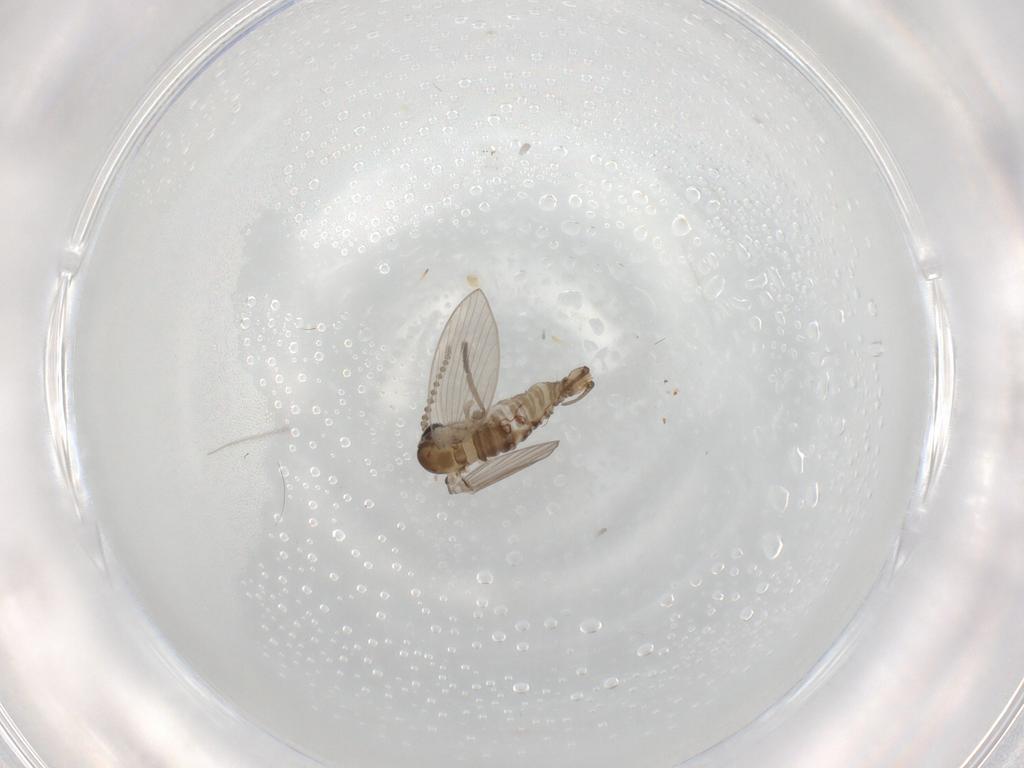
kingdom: Animalia
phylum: Arthropoda
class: Insecta
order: Diptera
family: Psychodidae
